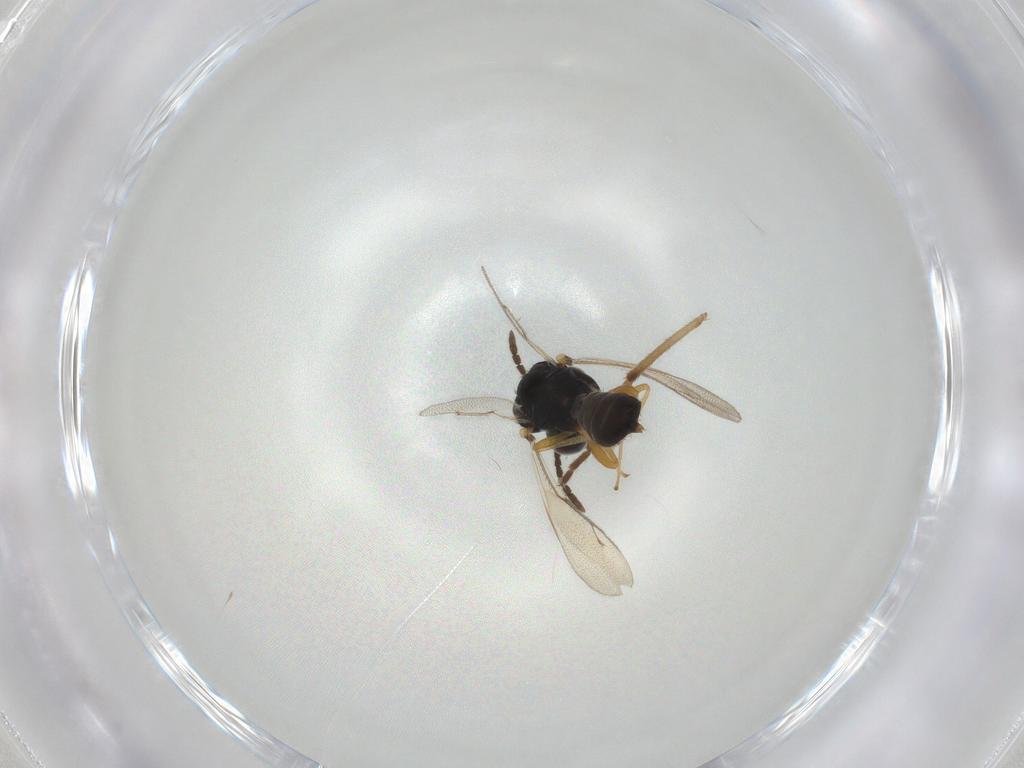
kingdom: Animalia
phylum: Arthropoda
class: Insecta
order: Hymenoptera
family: Pteromalidae
